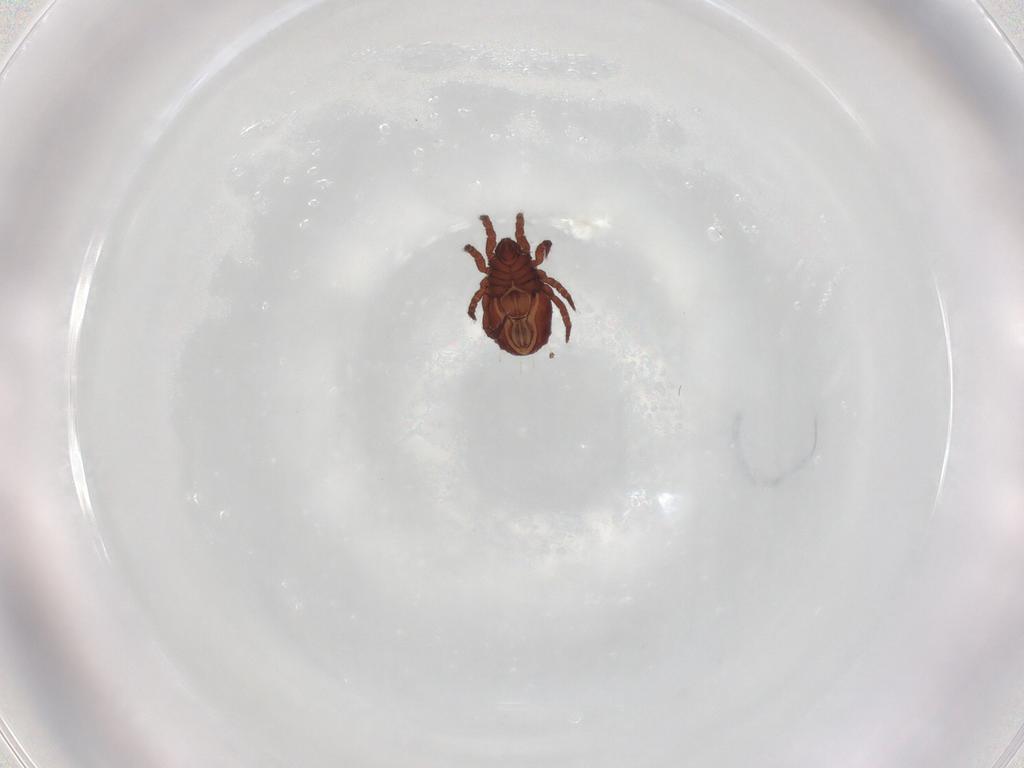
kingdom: Animalia
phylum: Arthropoda
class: Arachnida
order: Sarcoptiformes
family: Nothridae
